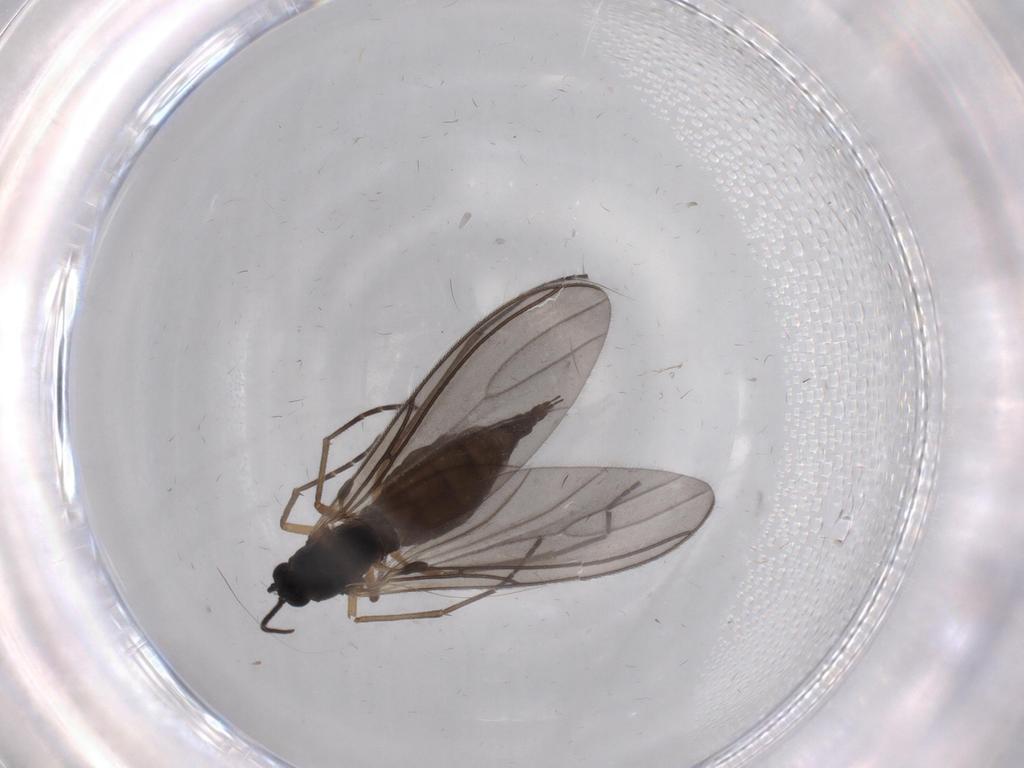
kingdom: Animalia
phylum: Arthropoda
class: Insecta
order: Diptera
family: Sciaridae
